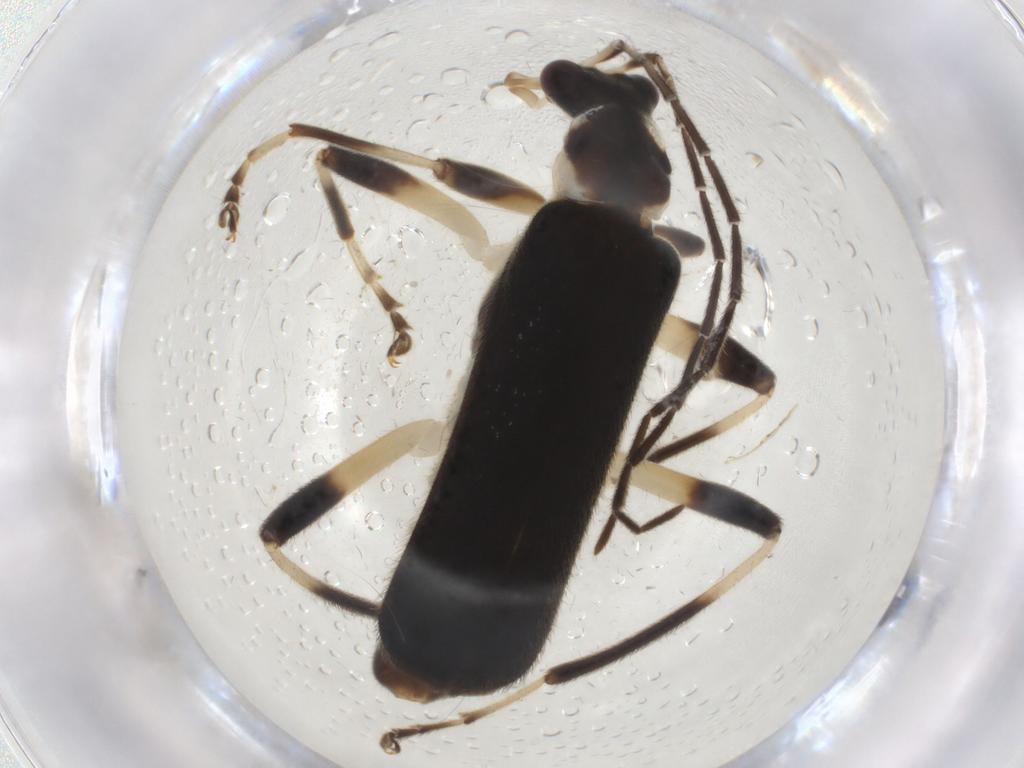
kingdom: Animalia
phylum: Arthropoda
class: Insecta
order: Coleoptera
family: Cantharidae
